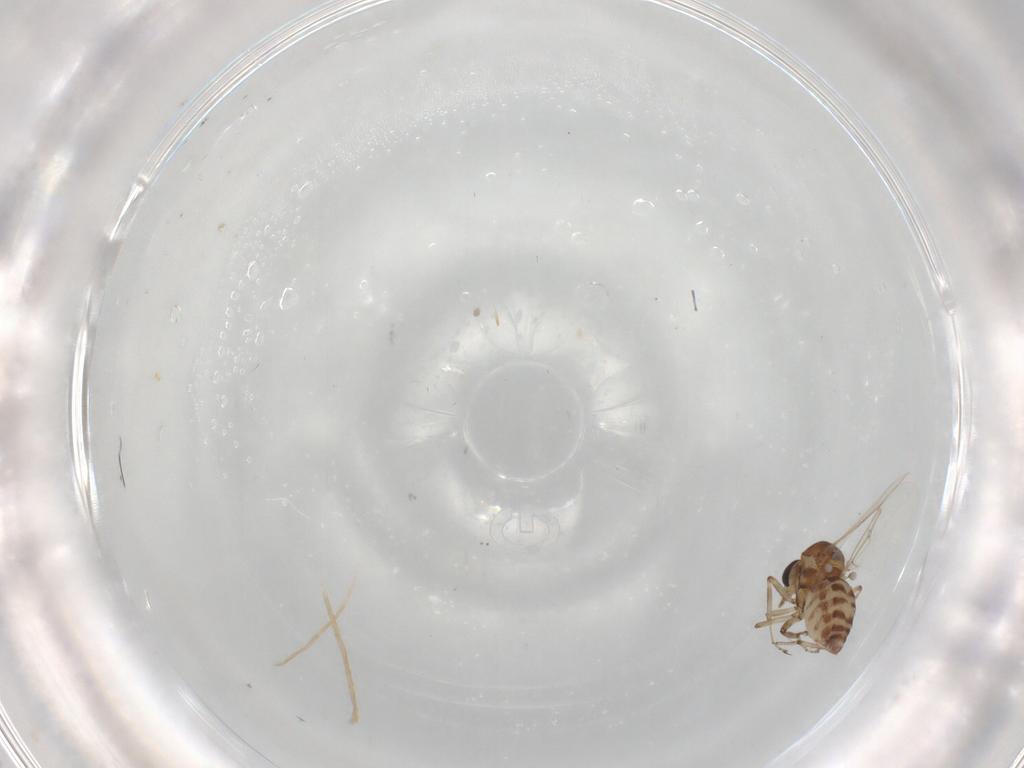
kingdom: Animalia
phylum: Arthropoda
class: Insecta
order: Diptera
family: Ceratopogonidae
